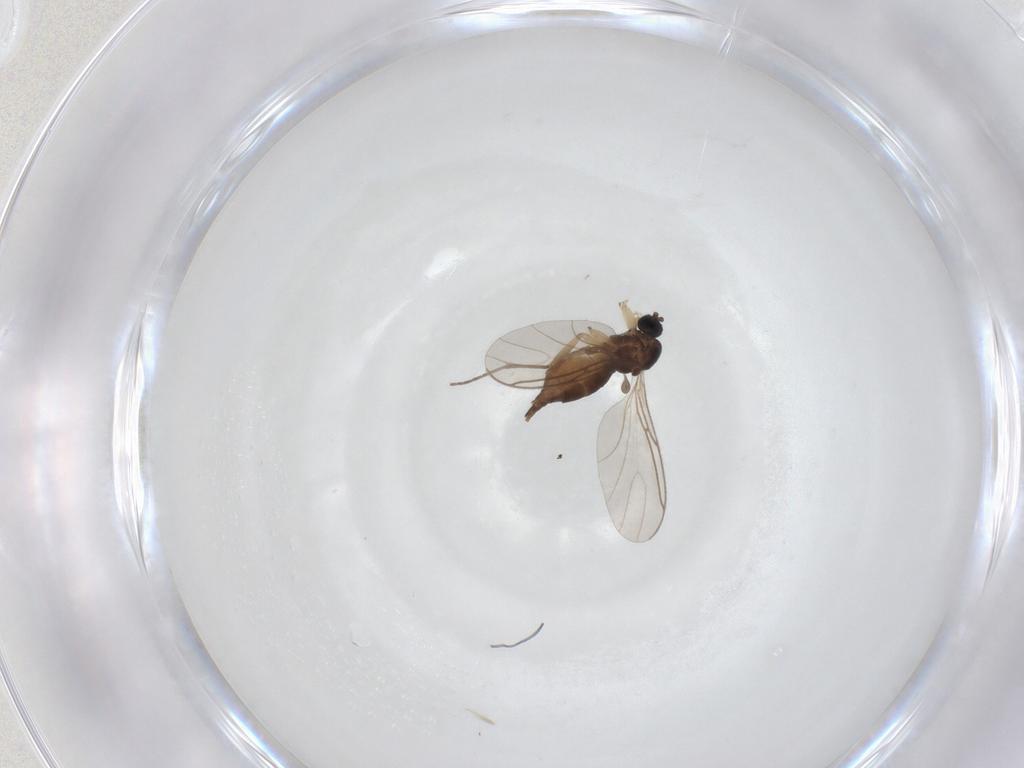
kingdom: Animalia
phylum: Arthropoda
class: Insecta
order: Diptera
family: Sciaridae
